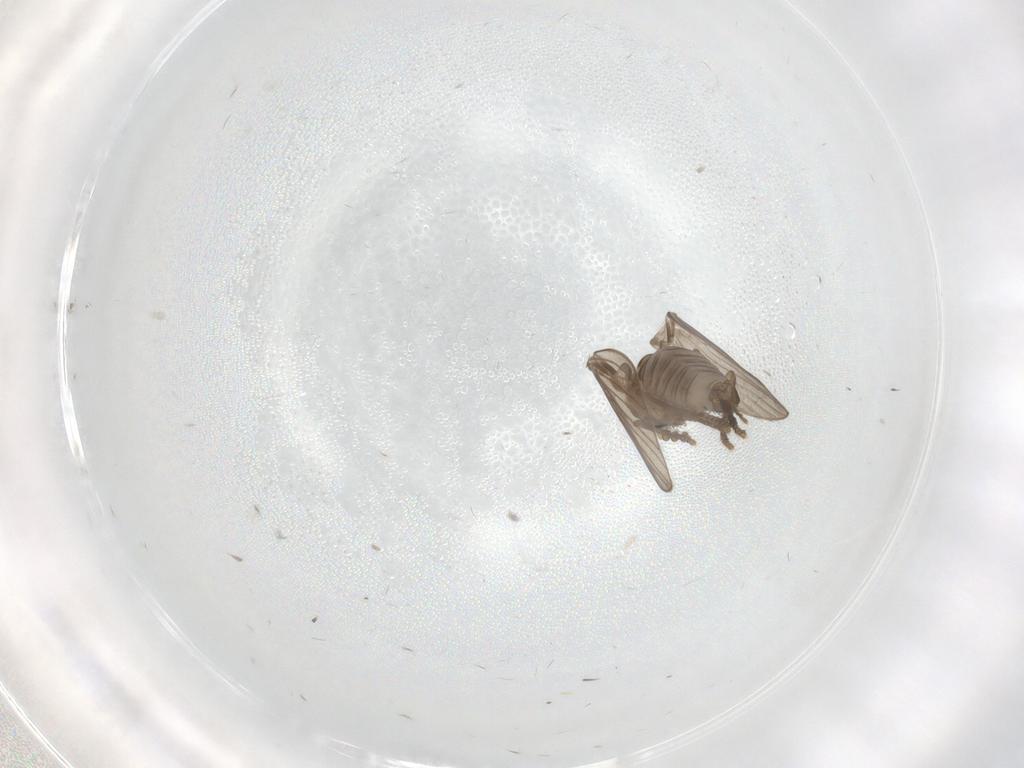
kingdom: Animalia
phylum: Arthropoda
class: Insecta
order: Diptera
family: Psychodidae
